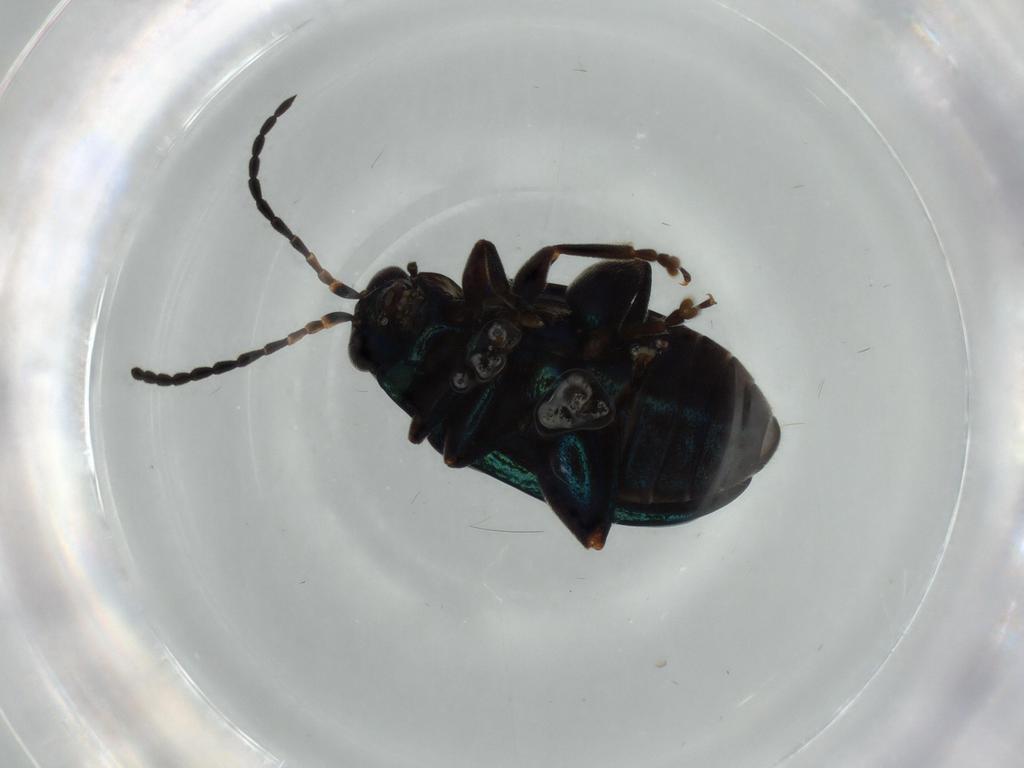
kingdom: Animalia
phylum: Arthropoda
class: Insecta
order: Coleoptera
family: Chrysomelidae
